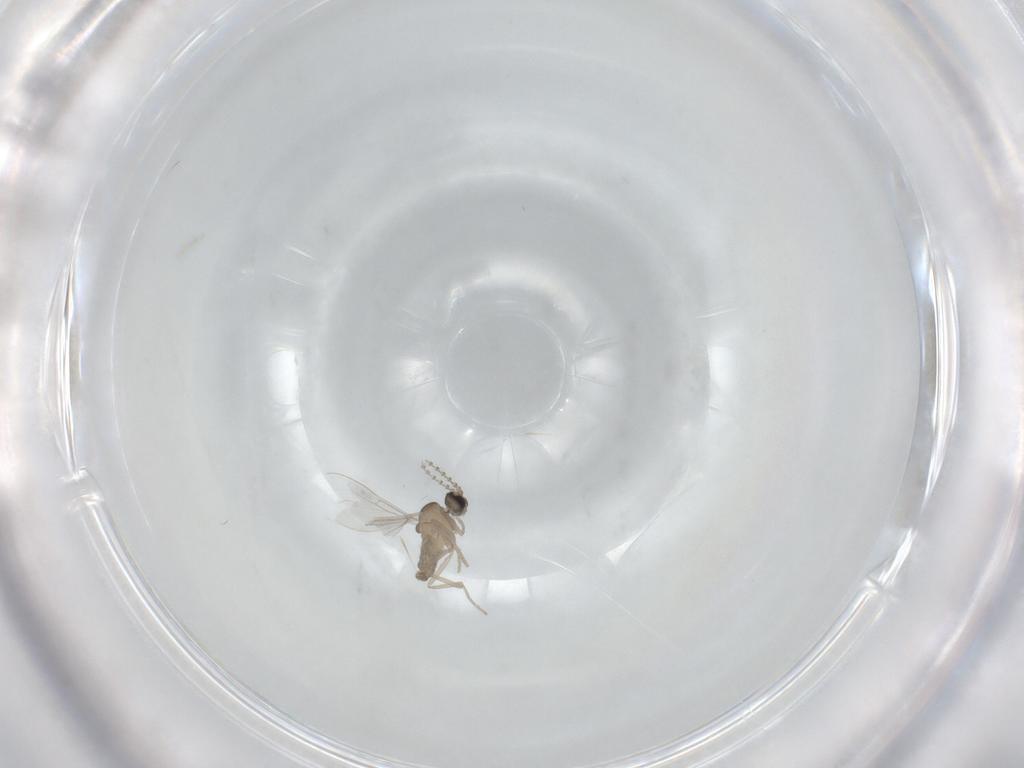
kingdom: Animalia
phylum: Arthropoda
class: Insecta
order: Diptera
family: Cecidomyiidae
